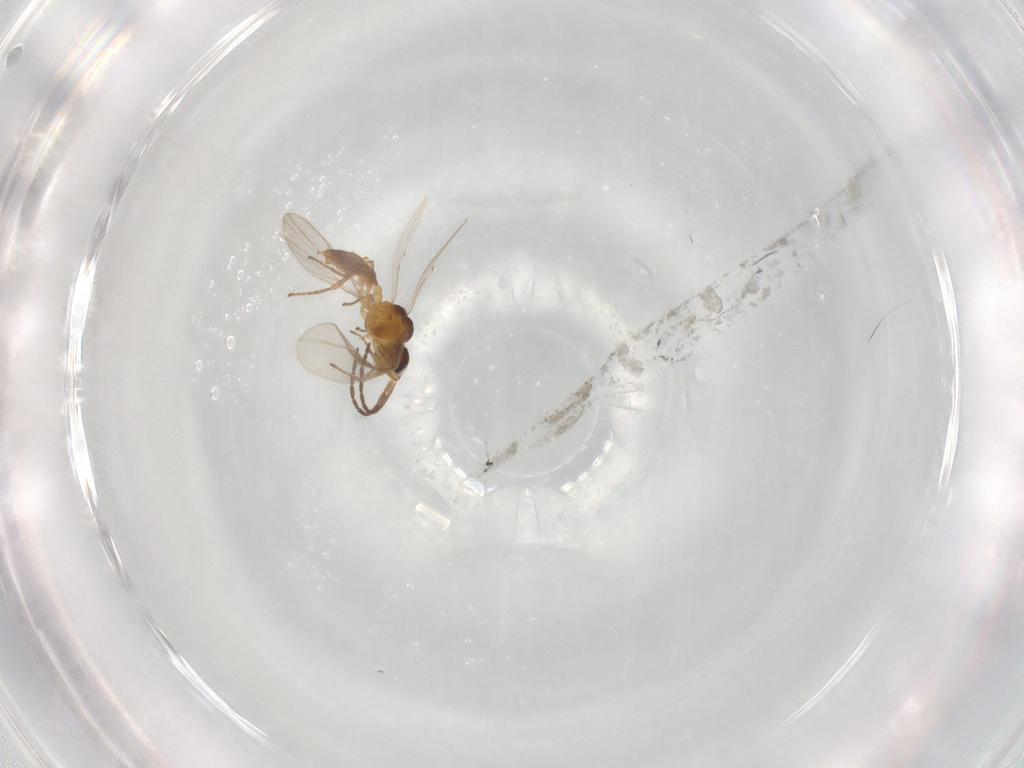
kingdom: Animalia
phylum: Arthropoda
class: Insecta
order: Hymenoptera
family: Braconidae
